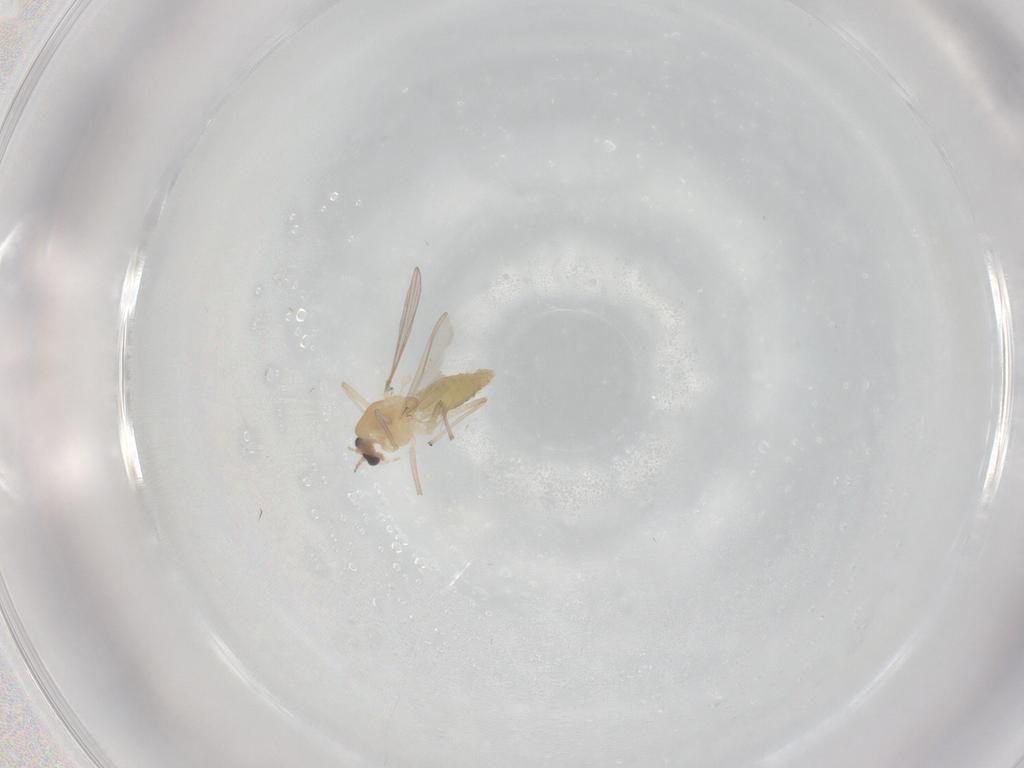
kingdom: Animalia
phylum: Arthropoda
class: Insecta
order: Diptera
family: Chironomidae
